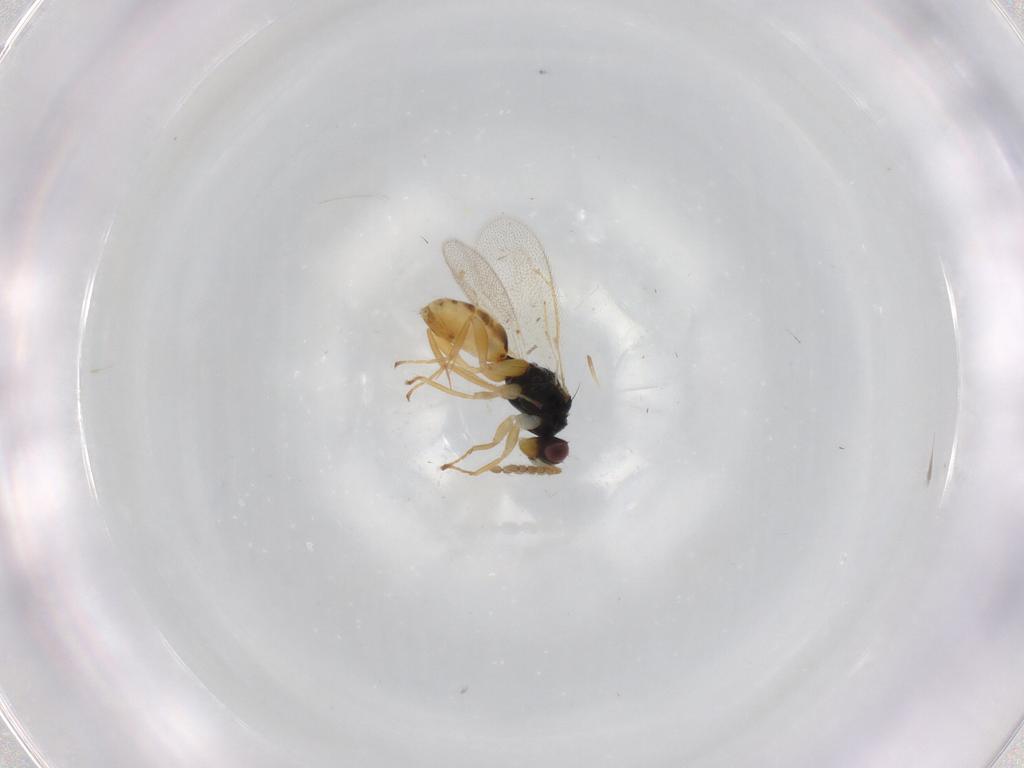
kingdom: Animalia
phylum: Arthropoda
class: Insecta
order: Hymenoptera
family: Eulophidae
